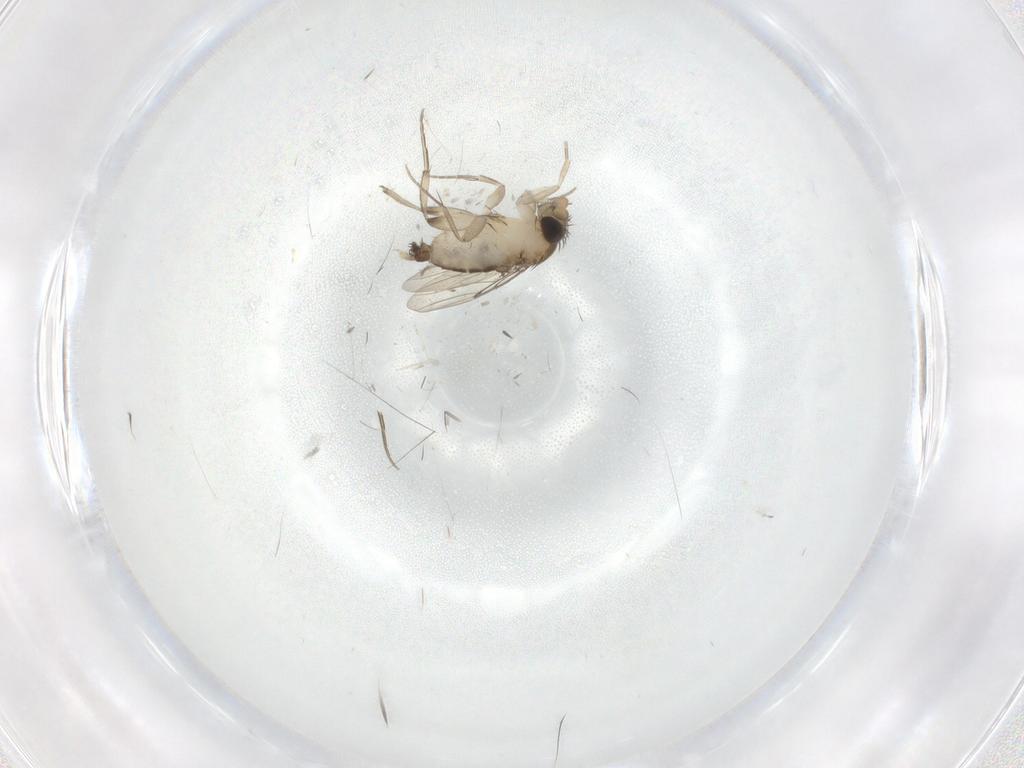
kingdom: Animalia
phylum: Arthropoda
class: Insecta
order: Diptera
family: Phoridae
